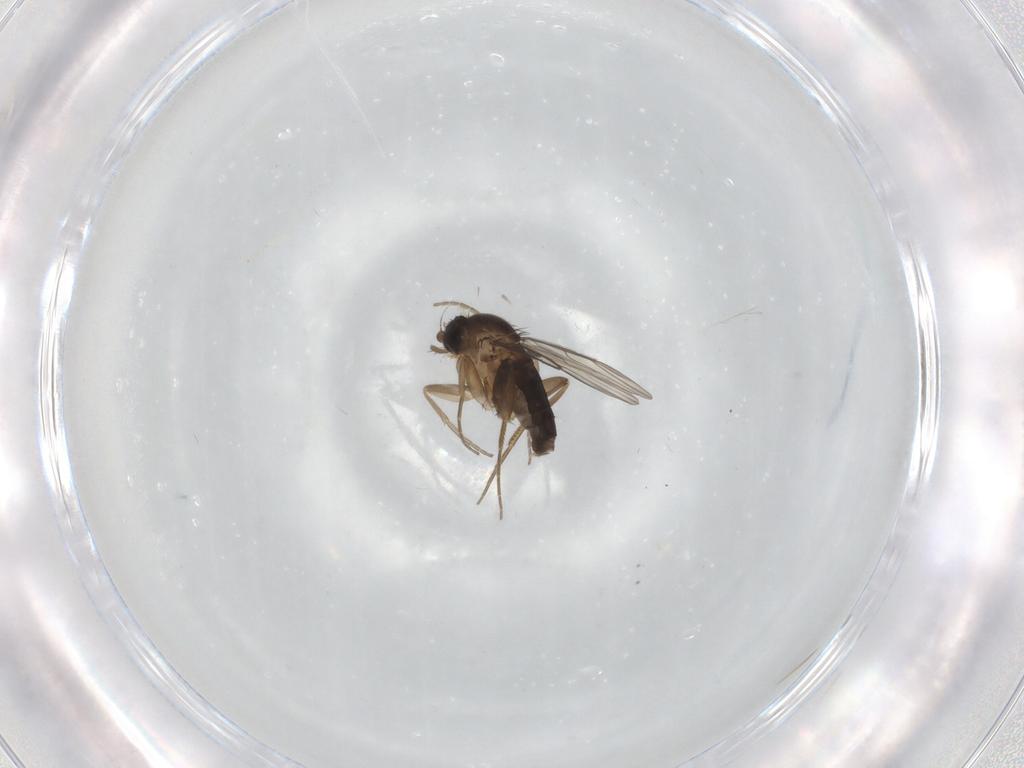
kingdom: Animalia
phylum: Arthropoda
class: Insecta
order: Diptera
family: Phoridae
